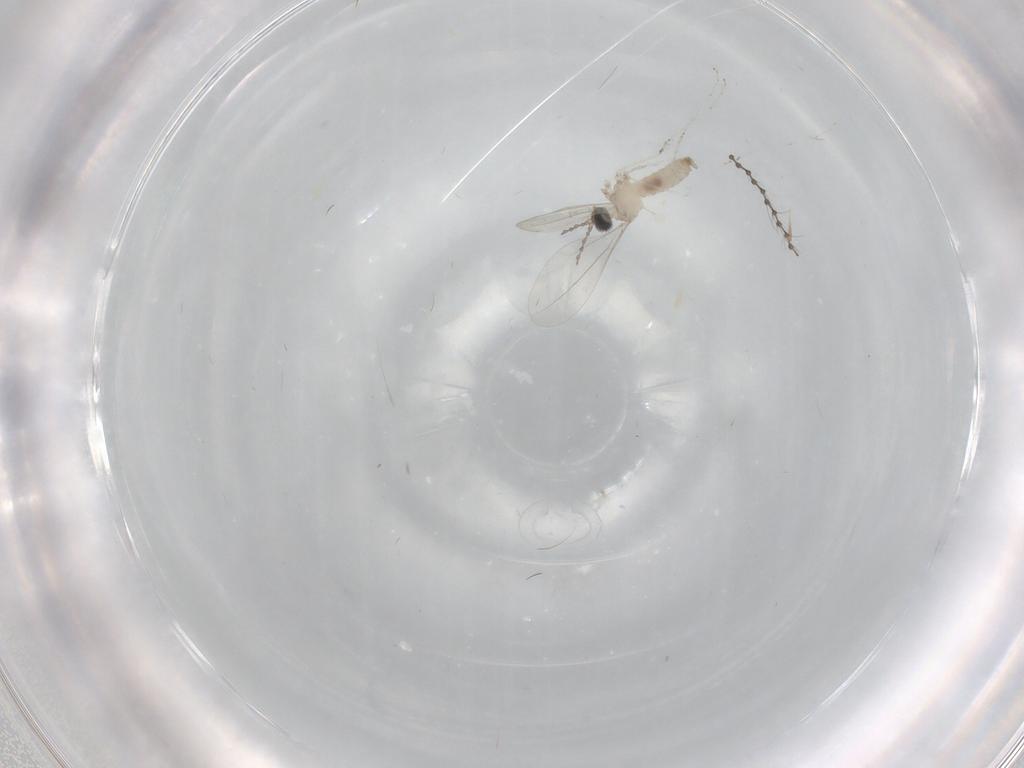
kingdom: Animalia
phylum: Arthropoda
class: Insecta
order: Diptera
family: Cecidomyiidae
